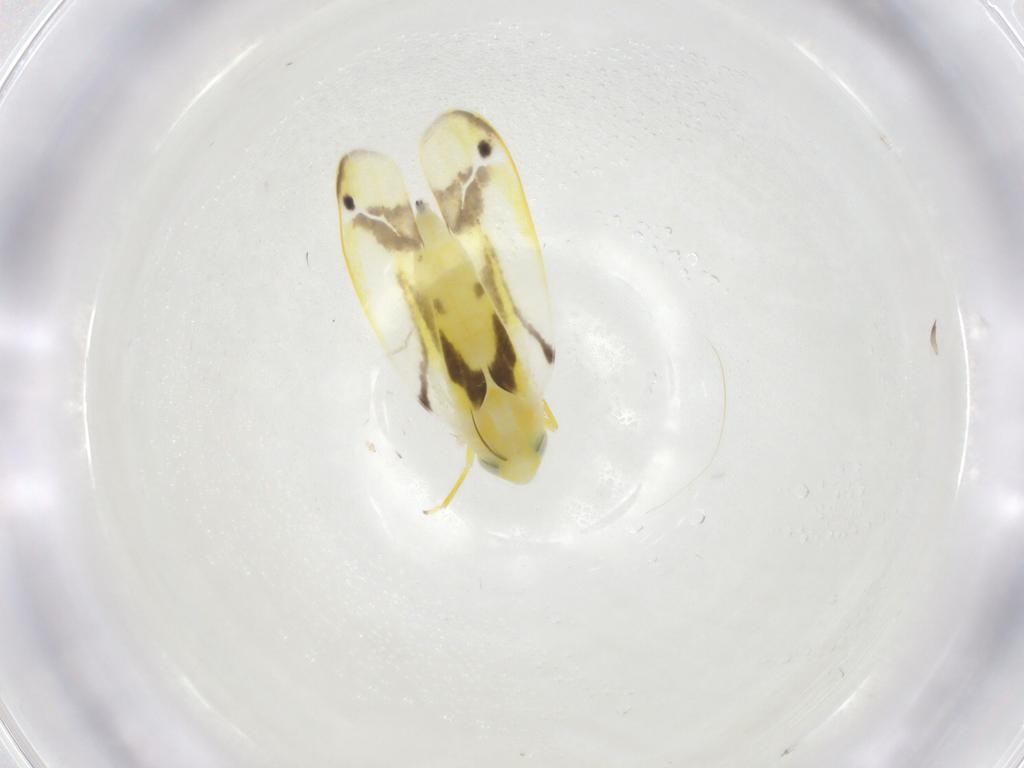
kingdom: Animalia
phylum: Arthropoda
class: Insecta
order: Hemiptera
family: Cicadellidae
